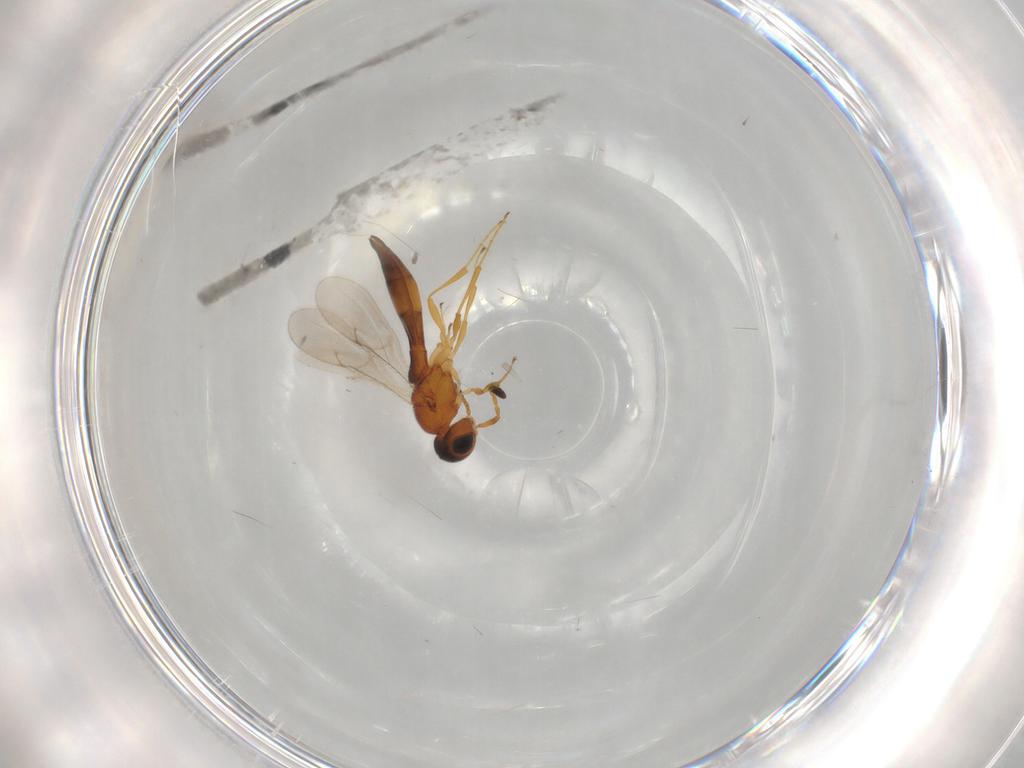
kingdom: Animalia
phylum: Arthropoda
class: Insecta
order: Hymenoptera
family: Scelionidae
